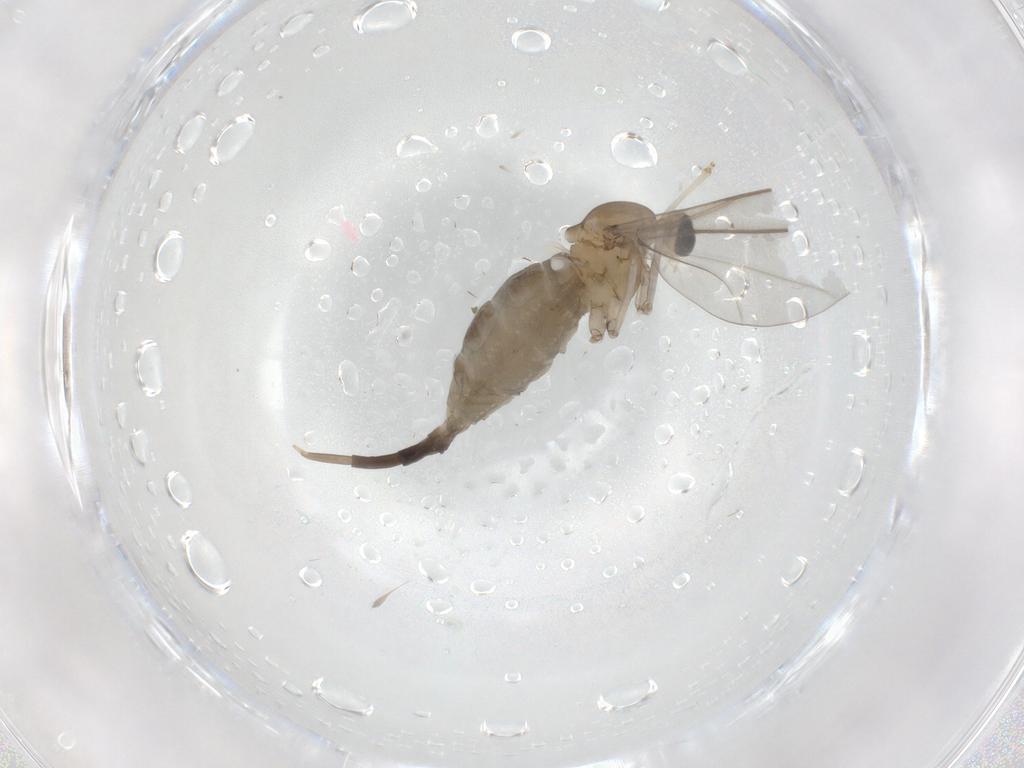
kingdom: Animalia
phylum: Arthropoda
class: Insecta
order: Diptera
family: Cecidomyiidae
